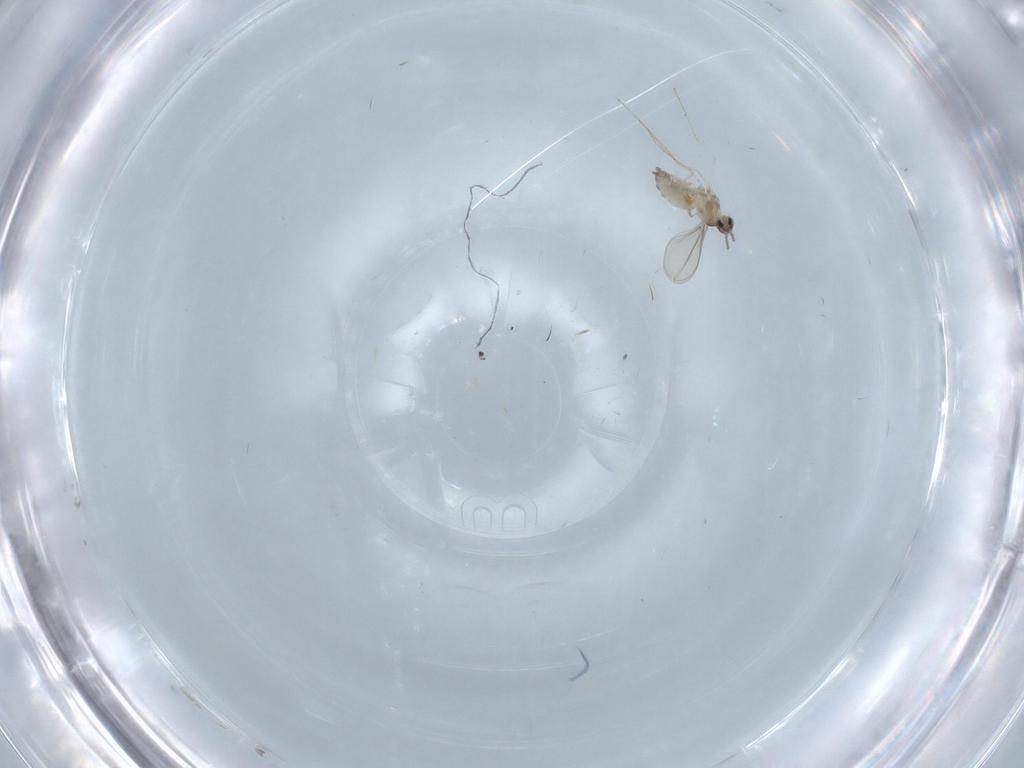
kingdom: Animalia
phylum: Arthropoda
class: Insecta
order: Diptera
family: Cecidomyiidae
